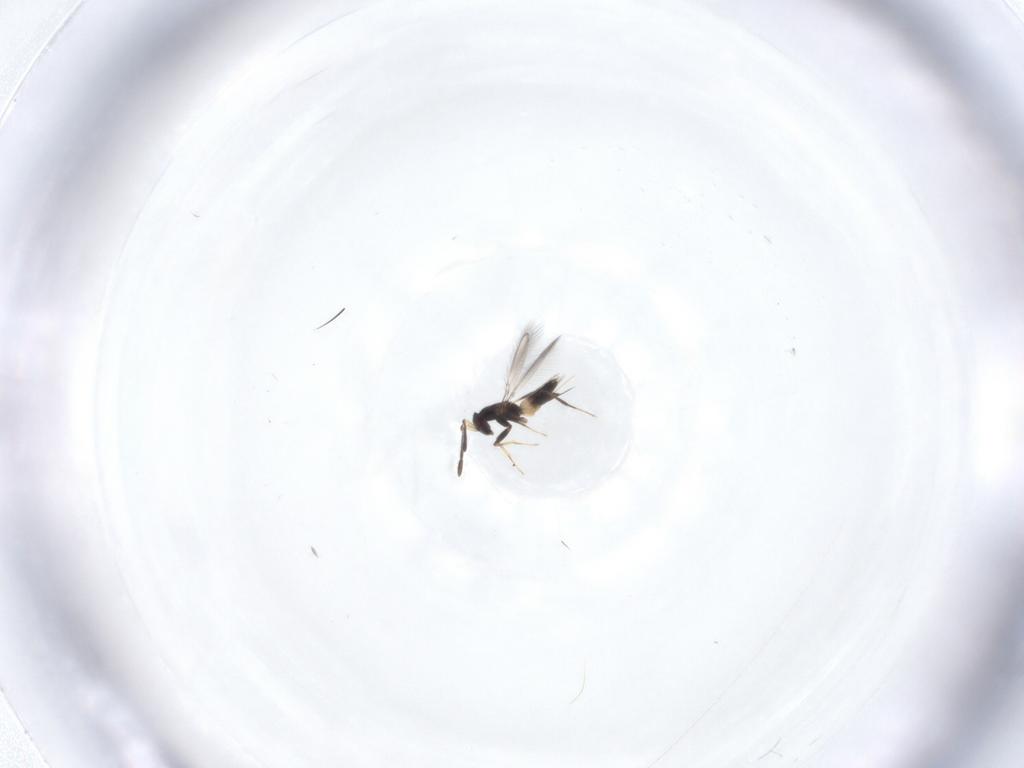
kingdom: Animalia
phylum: Arthropoda
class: Insecta
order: Hymenoptera
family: Mymaridae
